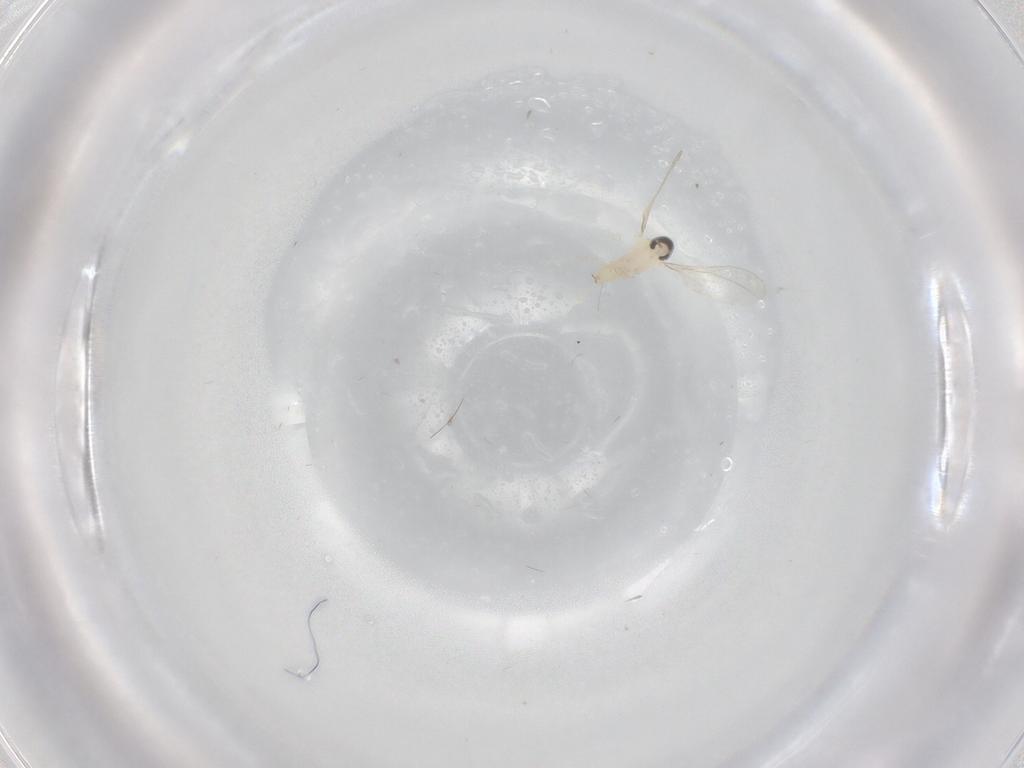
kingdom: Animalia
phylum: Arthropoda
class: Insecta
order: Diptera
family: Cecidomyiidae
